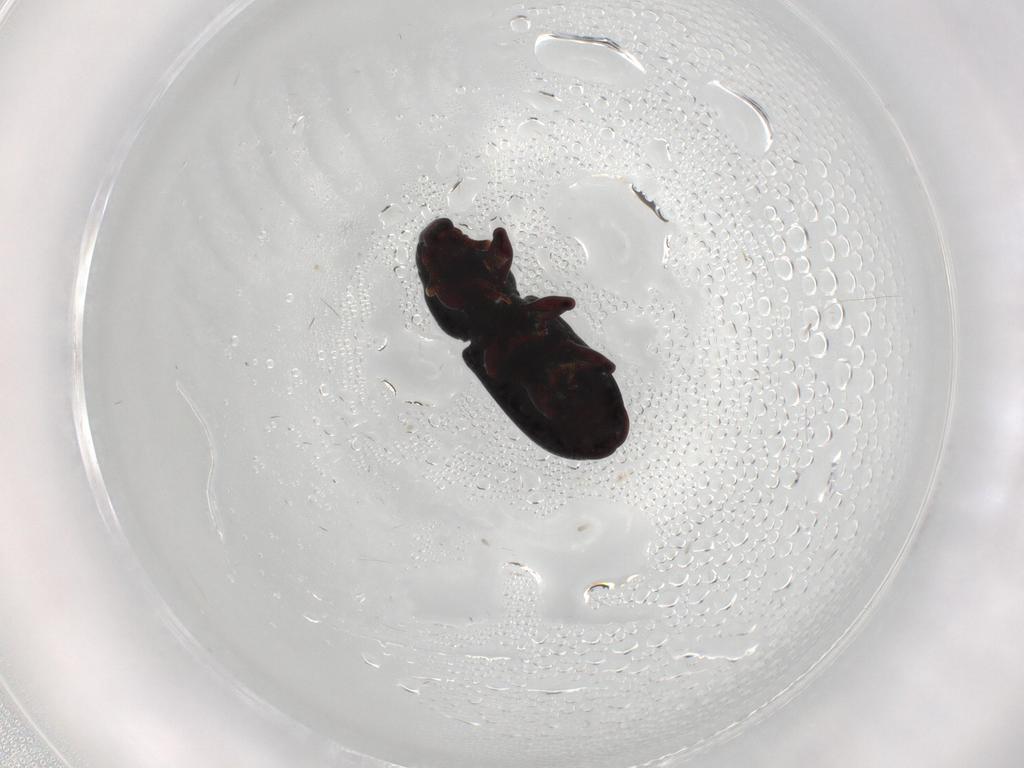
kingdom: Animalia
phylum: Arthropoda
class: Insecta
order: Coleoptera
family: Curculionidae
